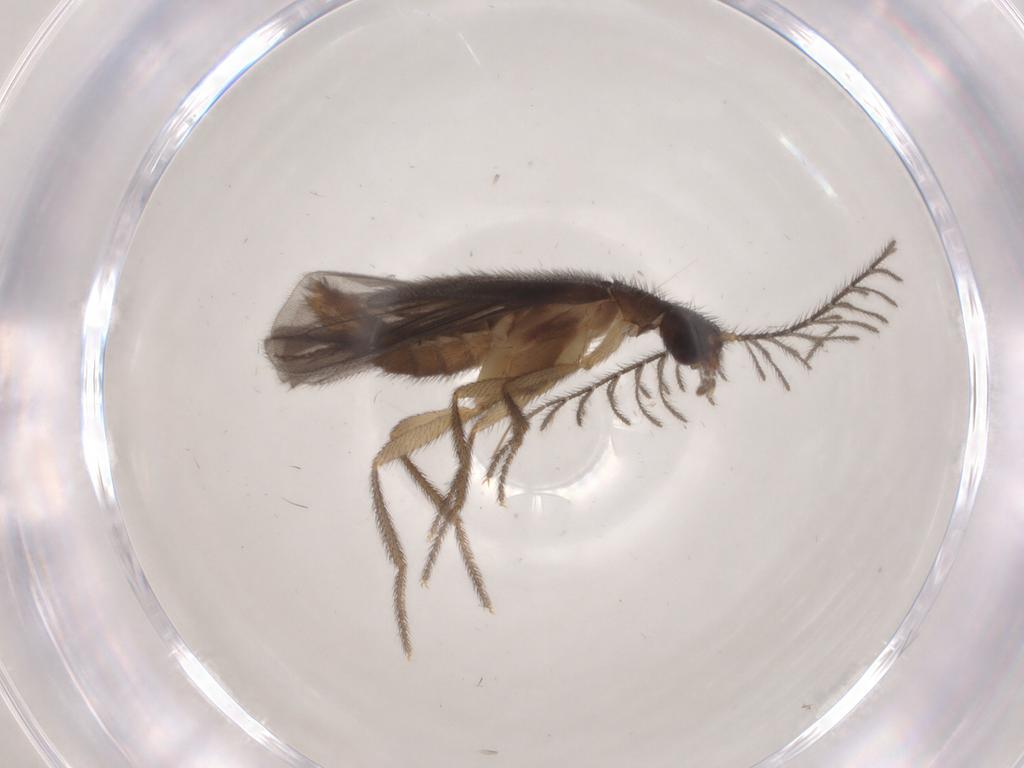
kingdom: Animalia
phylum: Arthropoda
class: Insecta
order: Coleoptera
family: Phengodidae
